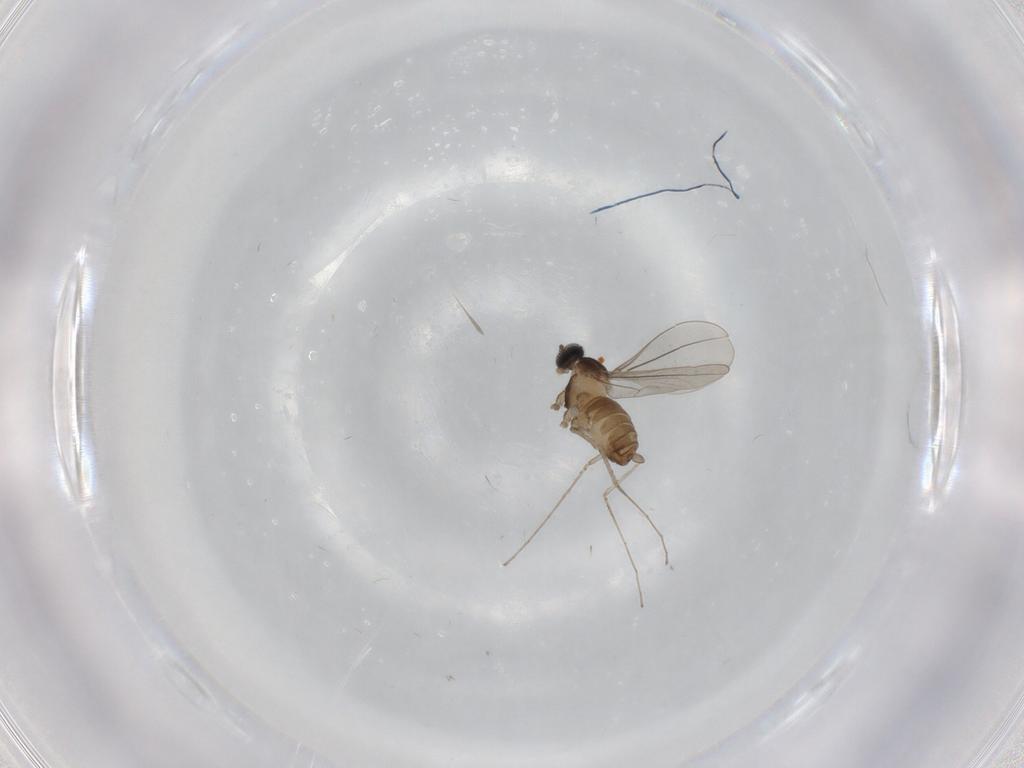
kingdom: Animalia
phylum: Arthropoda
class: Insecta
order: Diptera
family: Cecidomyiidae
